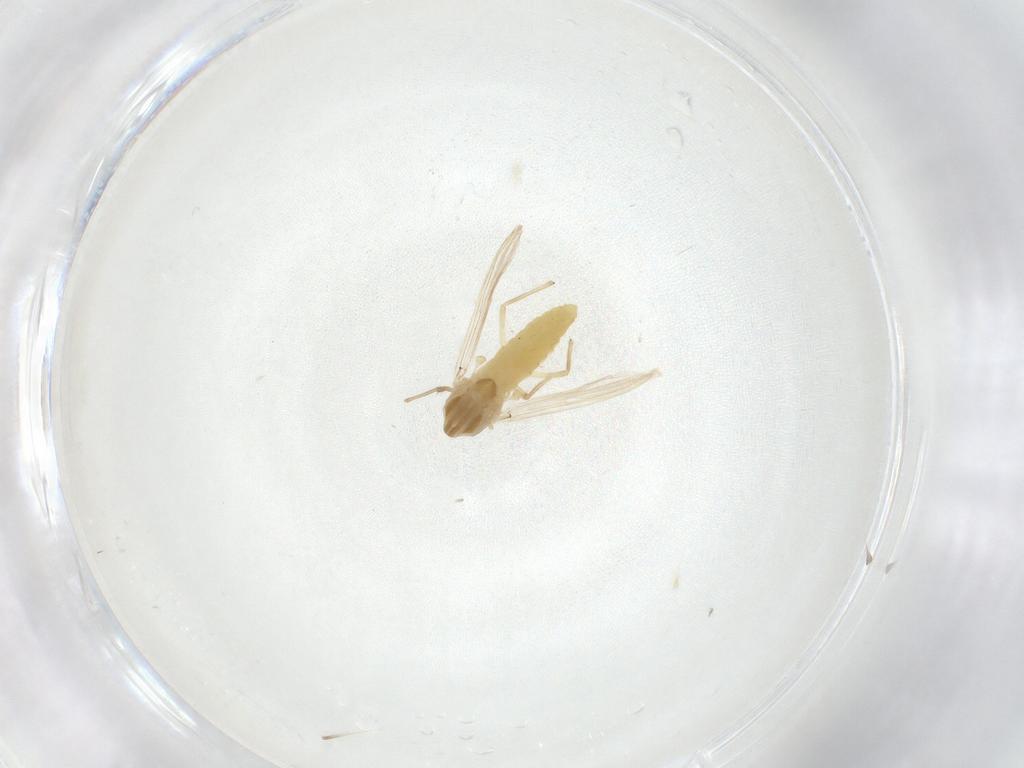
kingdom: Animalia
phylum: Arthropoda
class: Insecta
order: Diptera
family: Chironomidae
